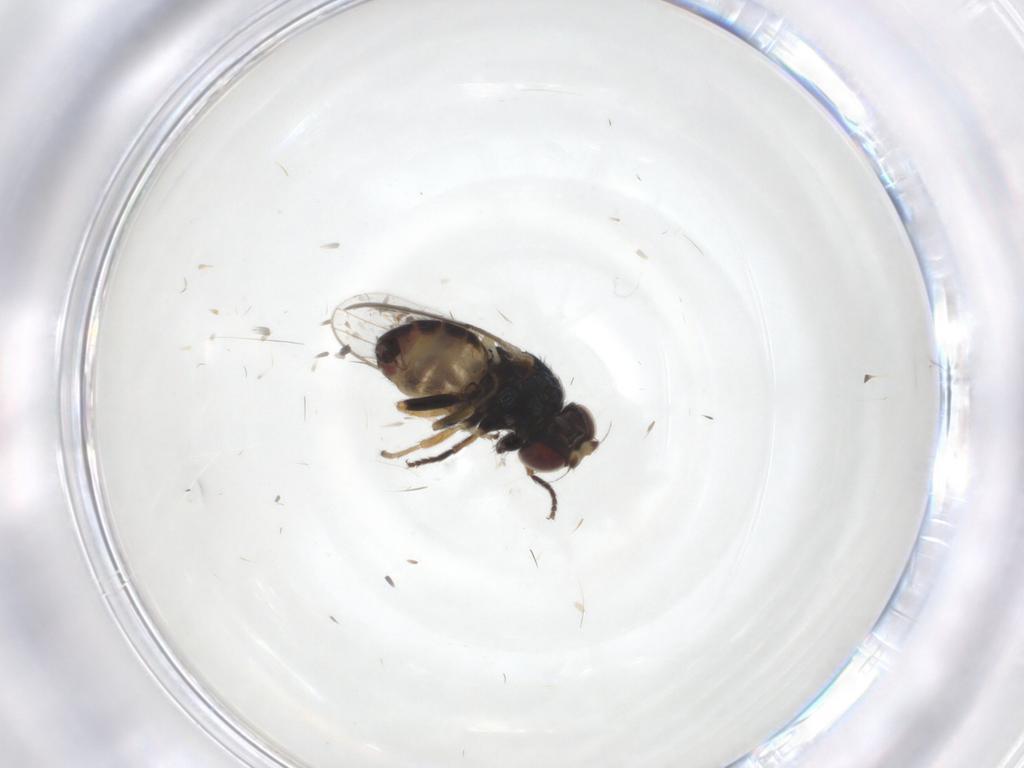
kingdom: Animalia
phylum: Arthropoda
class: Insecta
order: Diptera
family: Chloropidae
